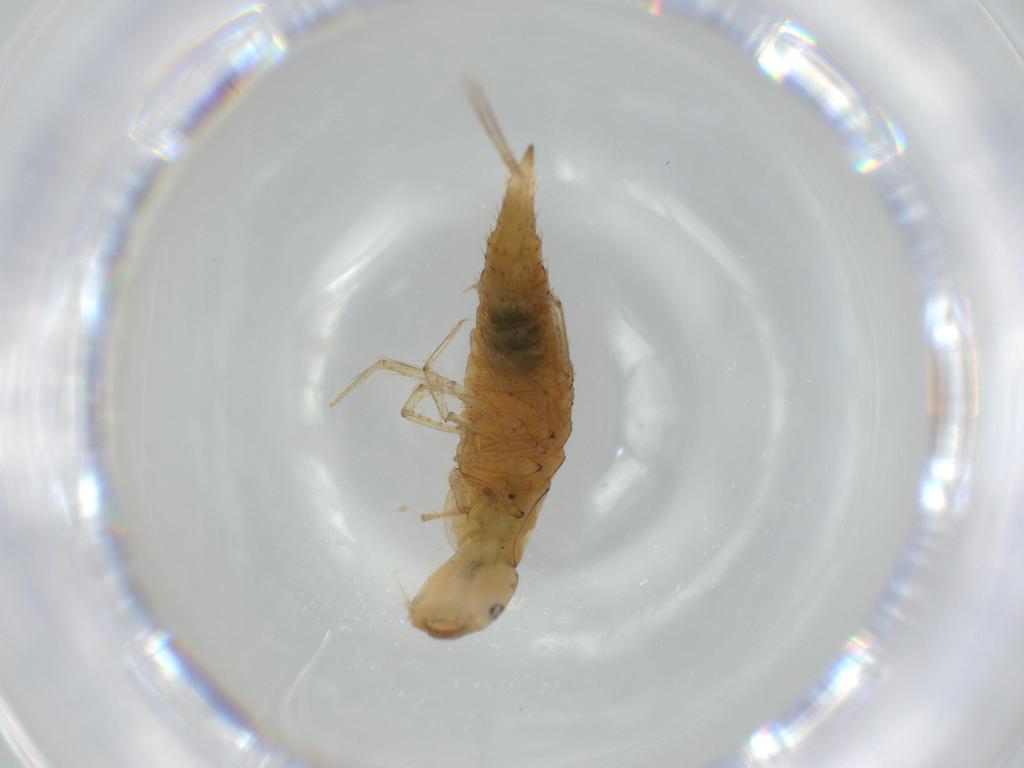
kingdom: Animalia
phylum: Arthropoda
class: Insecta
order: Coleoptera
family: Dytiscidae
